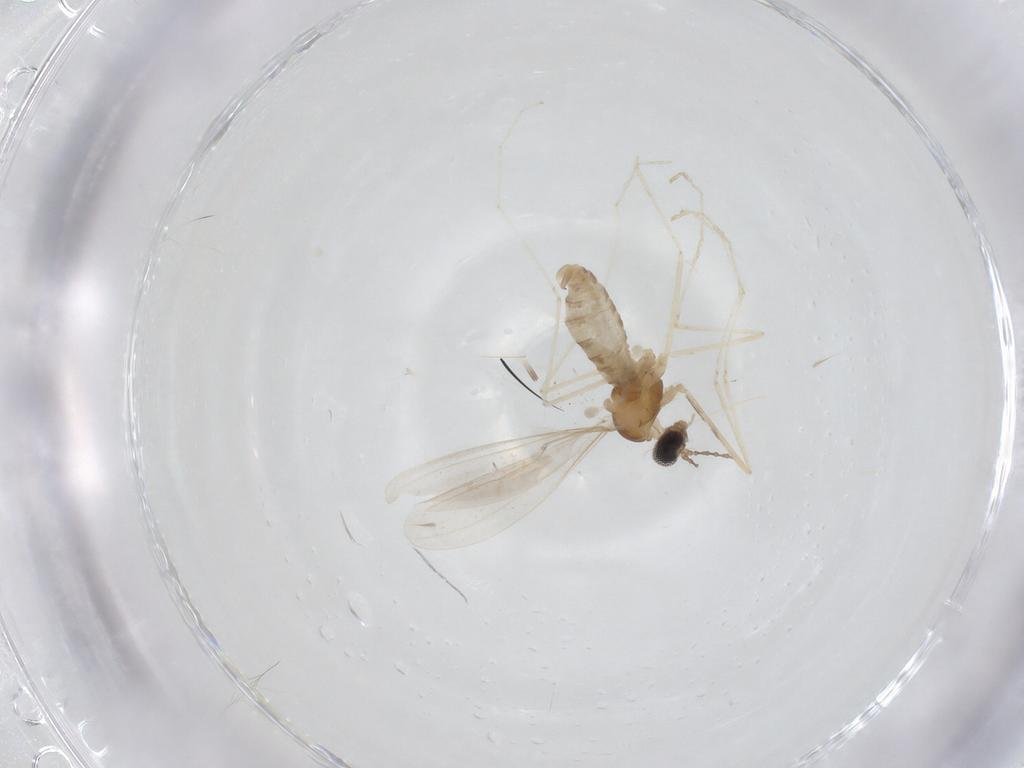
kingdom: Animalia
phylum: Arthropoda
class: Insecta
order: Diptera
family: Cecidomyiidae
